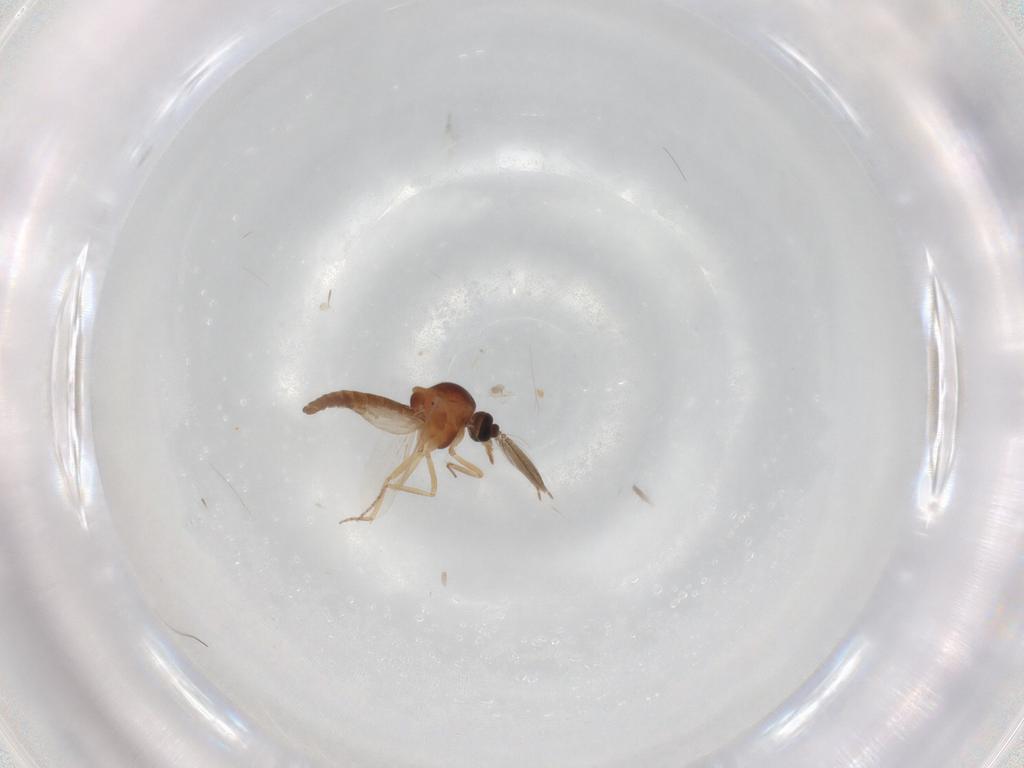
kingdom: Animalia
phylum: Arthropoda
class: Insecta
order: Diptera
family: Ceratopogonidae
